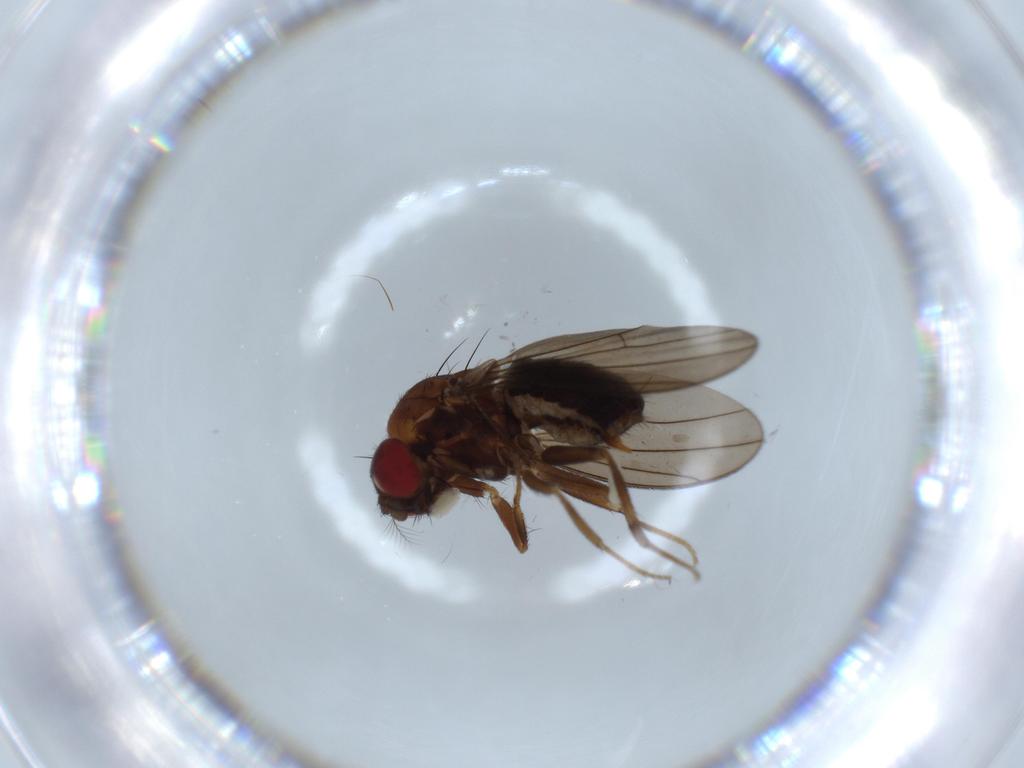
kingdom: Animalia
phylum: Arthropoda
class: Insecta
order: Diptera
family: Drosophilidae
